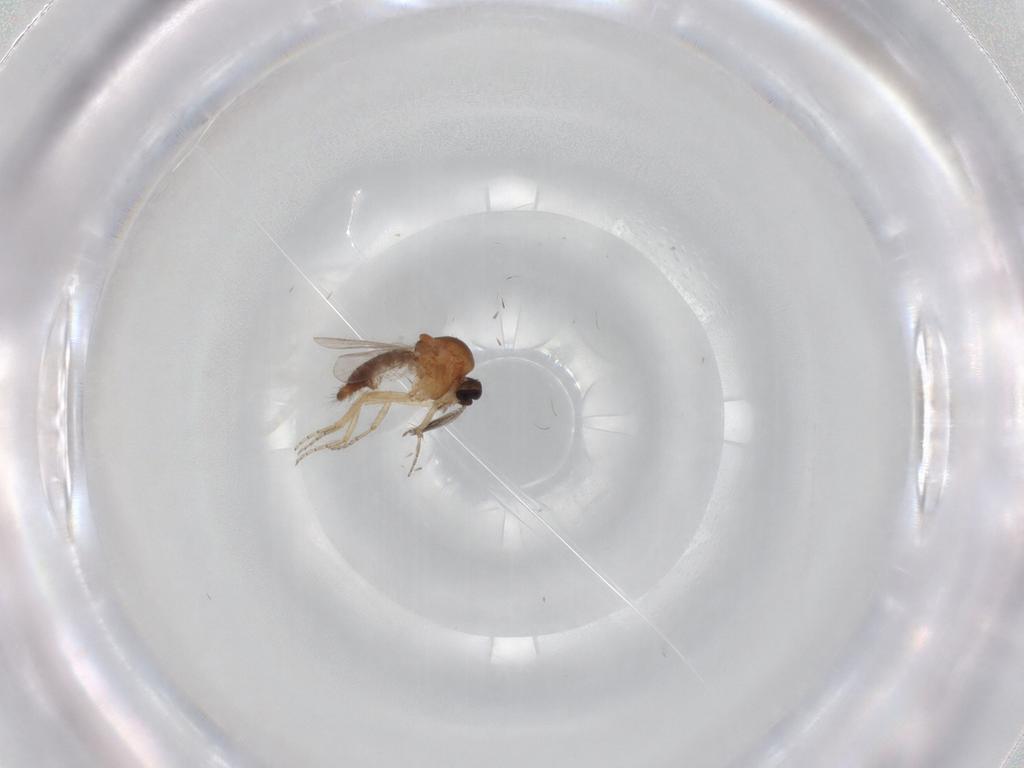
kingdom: Animalia
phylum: Arthropoda
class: Insecta
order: Diptera
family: Ceratopogonidae
